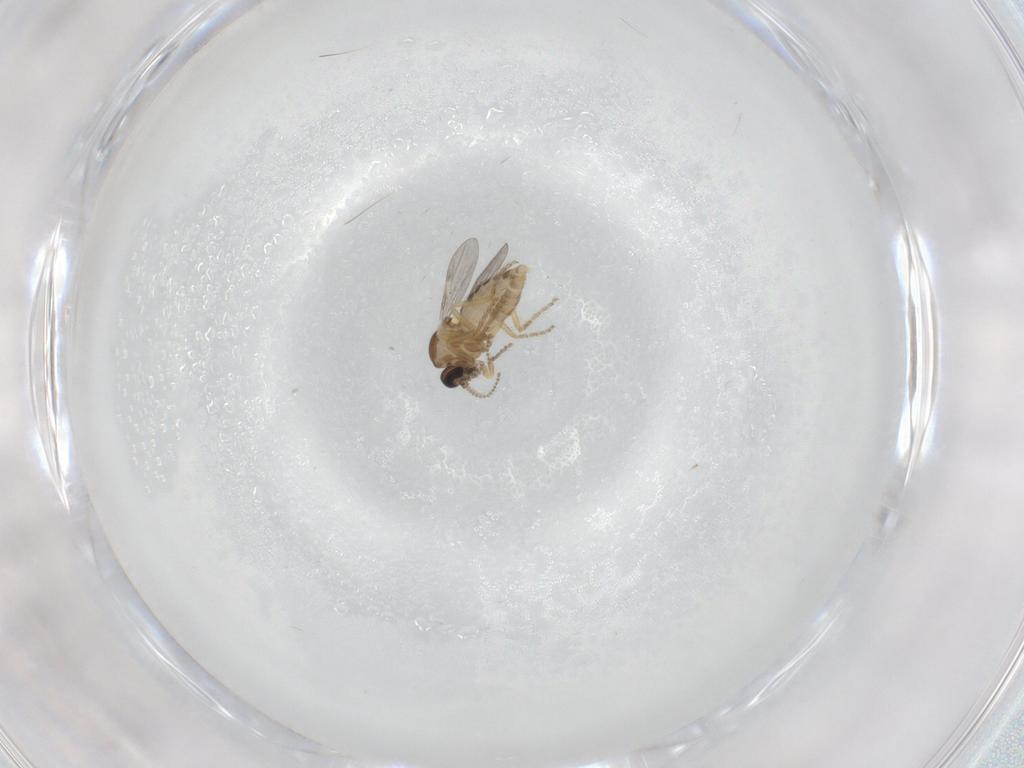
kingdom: Animalia
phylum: Arthropoda
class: Insecta
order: Diptera
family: Ceratopogonidae
